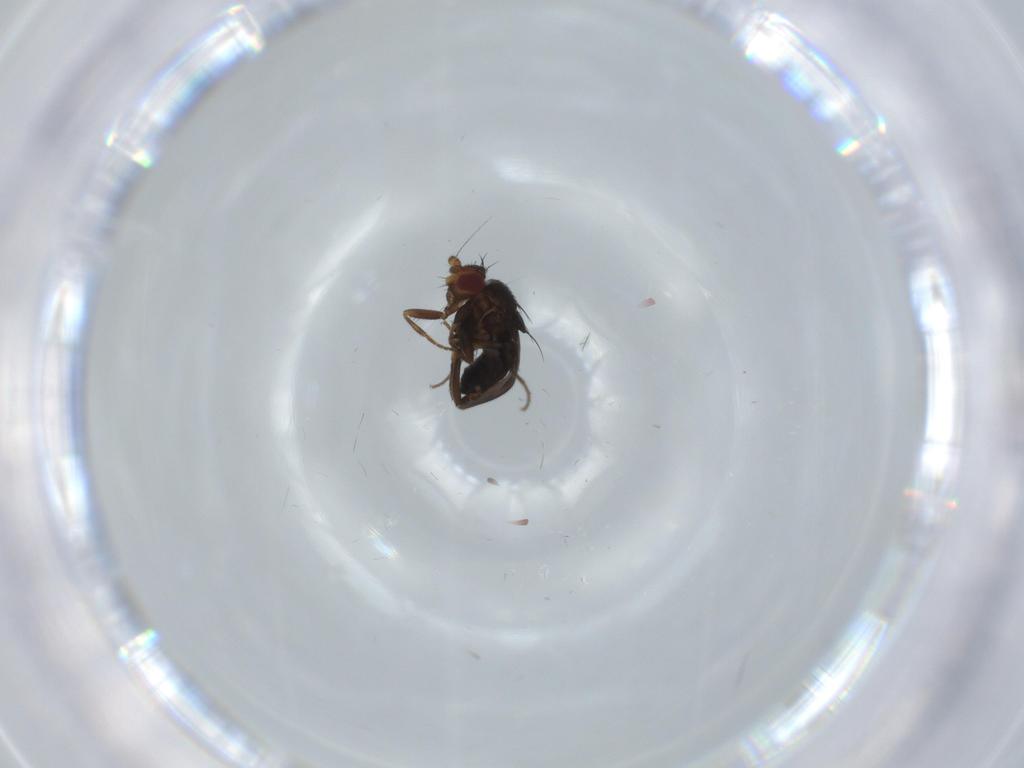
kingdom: Animalia
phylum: Arthropoda
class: Insecta
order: Diptera
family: Sphaeroceridae
